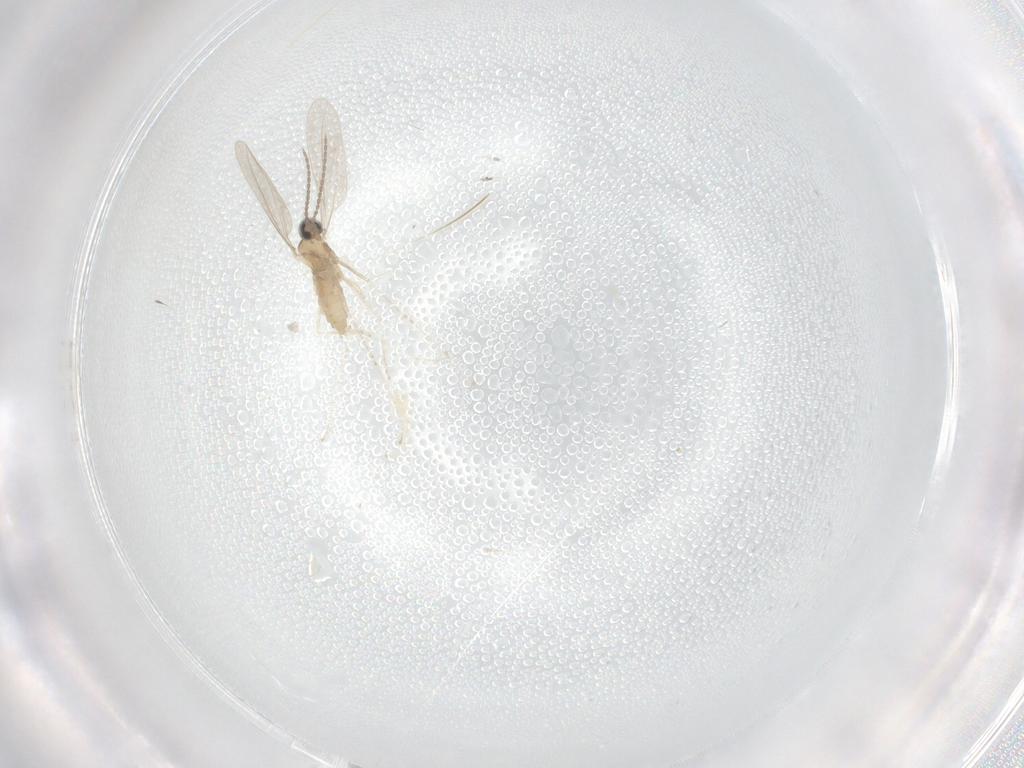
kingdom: Animalia
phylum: Arthropoda
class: Insecta
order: Diptera
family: Cecidomyiidae
